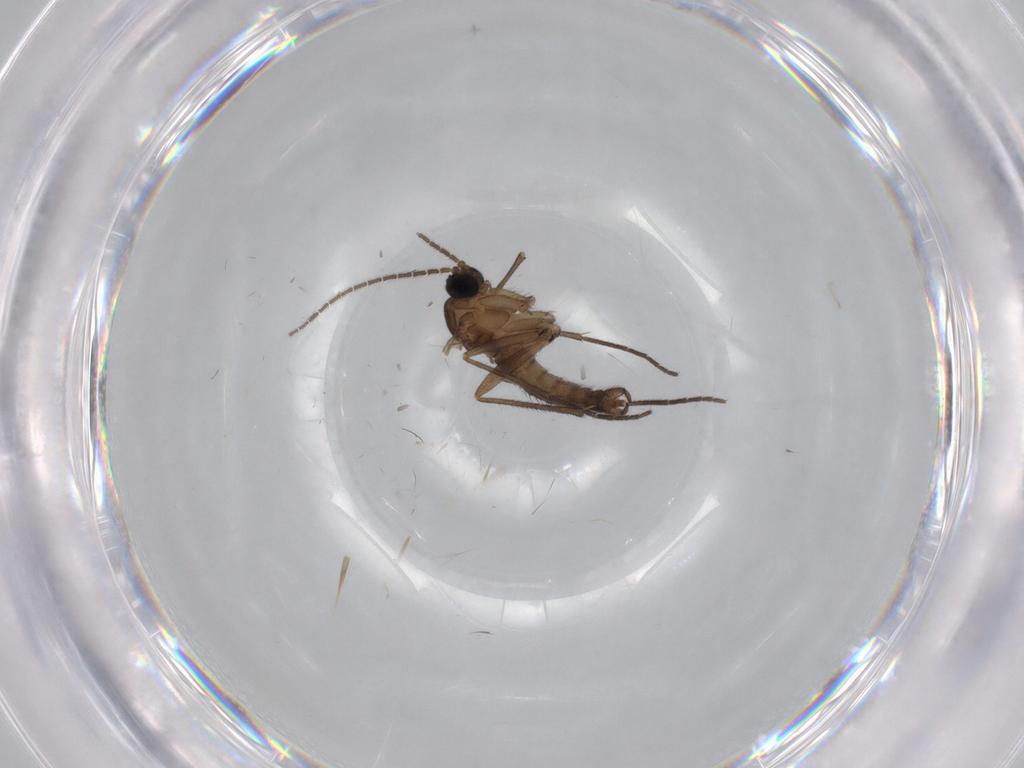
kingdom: Animalia
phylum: Arthropoda
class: Insecta
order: Diptera
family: Sciaridae
